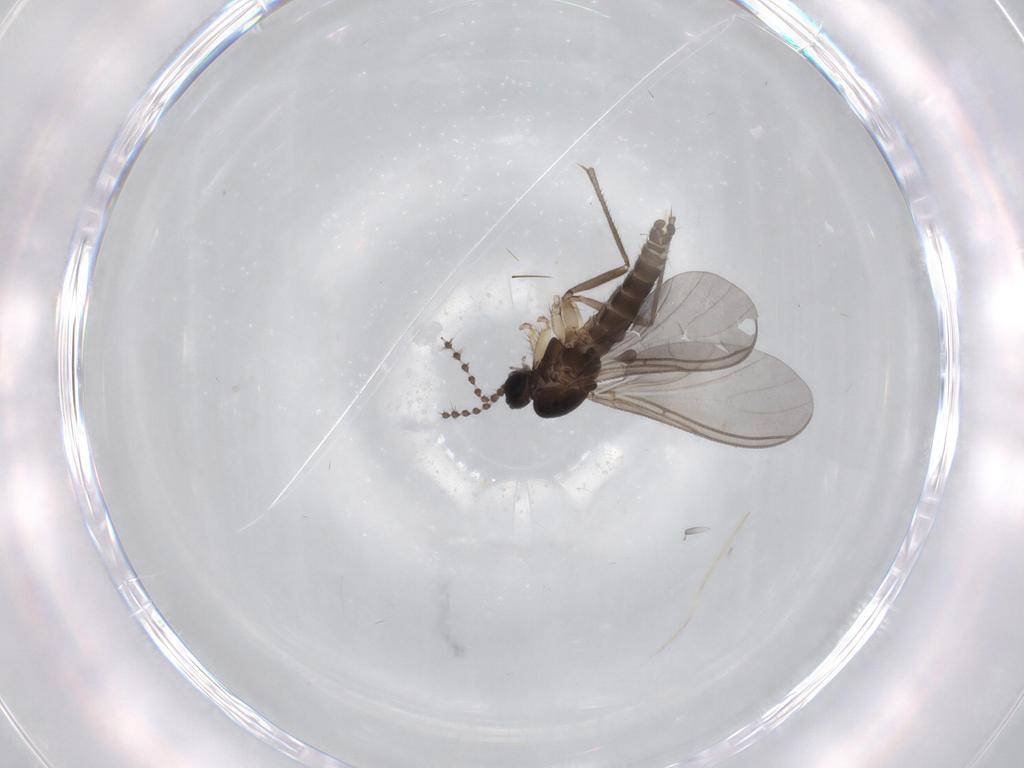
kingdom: Animalia
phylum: Arthropoda
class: Insecta
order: Diptera
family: Sciaridae
